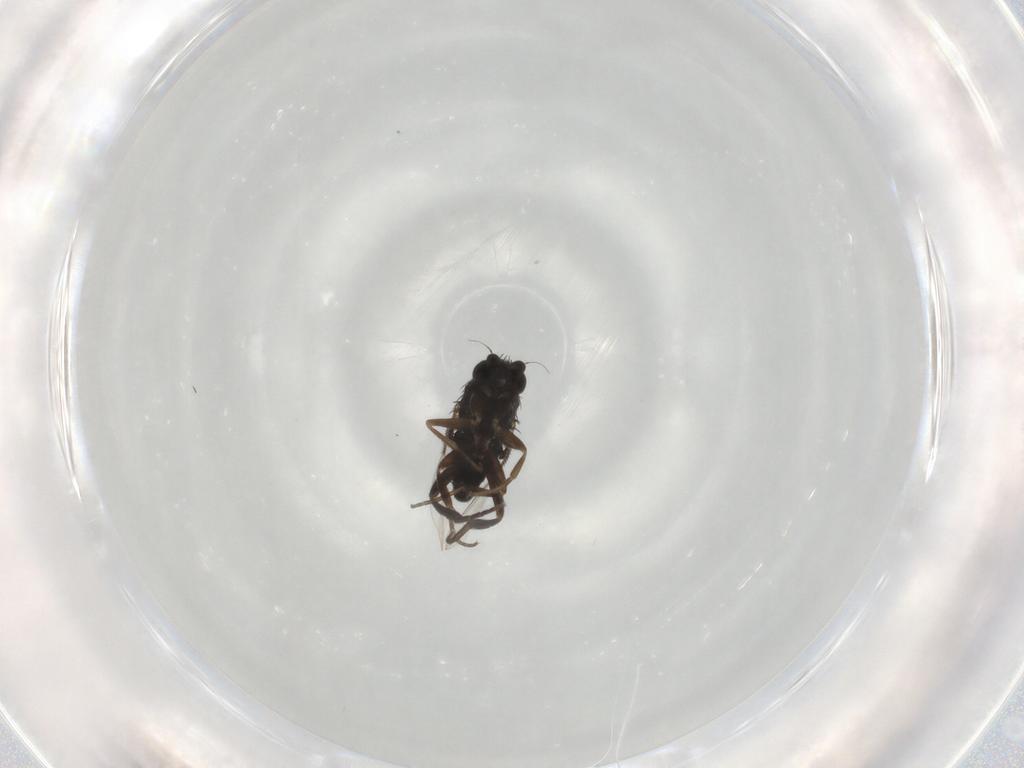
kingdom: Animalia
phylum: Arthropoda
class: Insecta
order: Diptera
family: Phoridae
